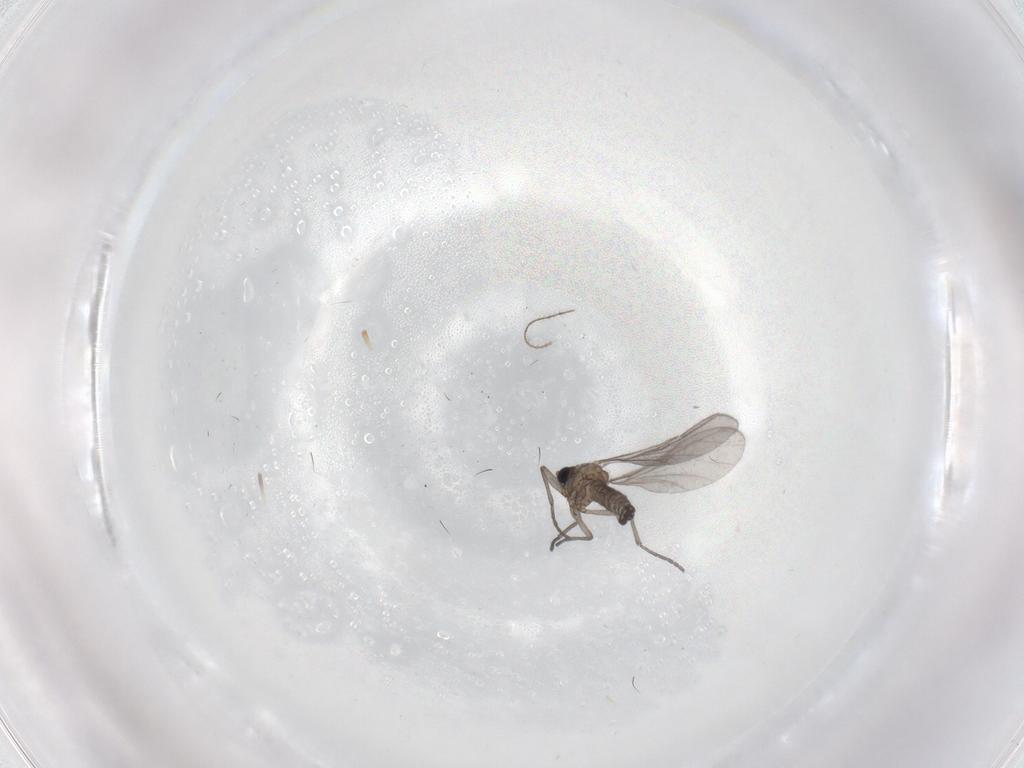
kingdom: Animalia
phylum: Arthropoda
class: Insecta
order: Diptera
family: Sciaridae
